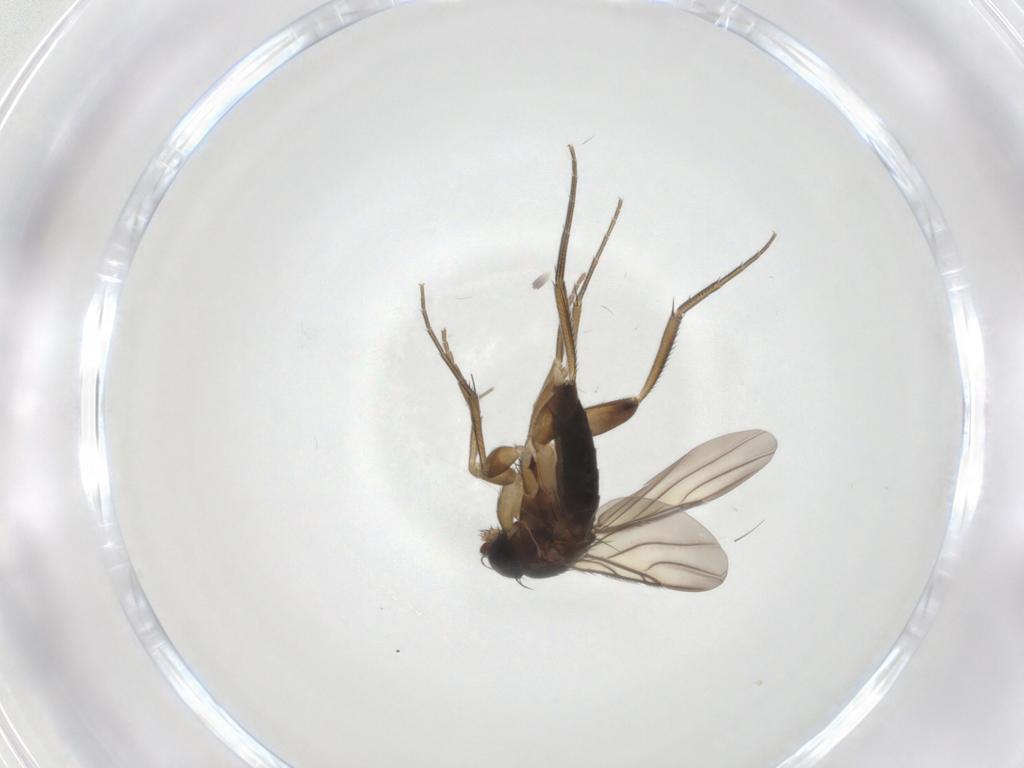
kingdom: Animalia
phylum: Arthropoda
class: Insecta
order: Diptera
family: Phoridae
